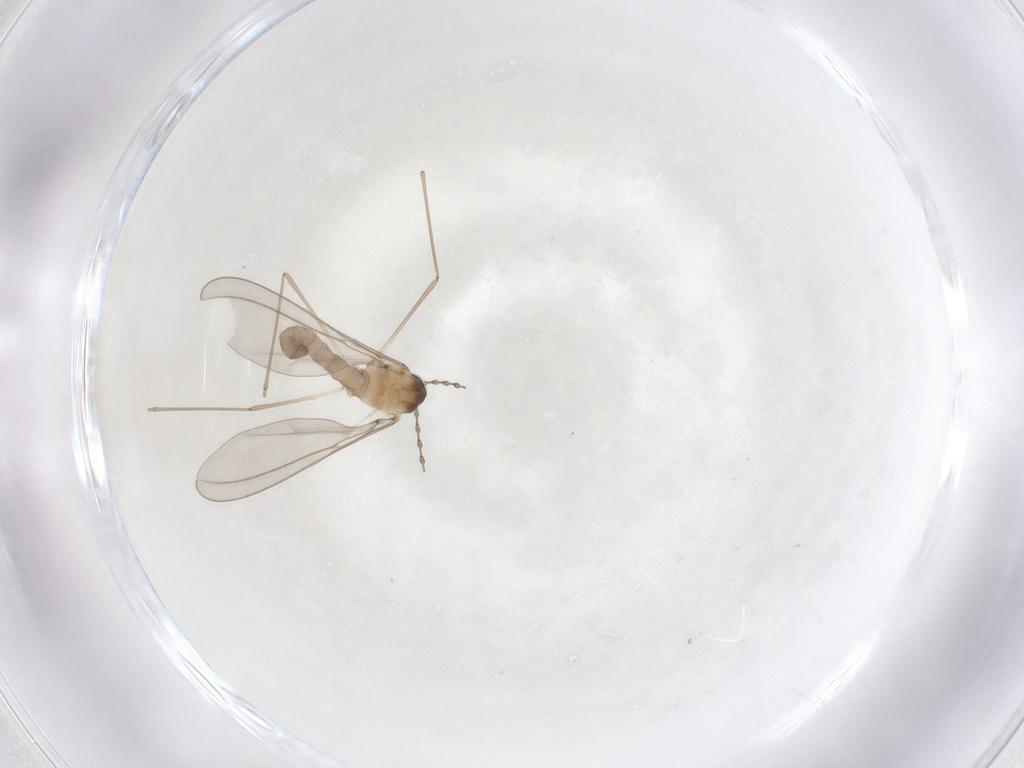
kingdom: Animalia
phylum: Arthropoda
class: Insecta
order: Diptera
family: Cecidomyiidae
